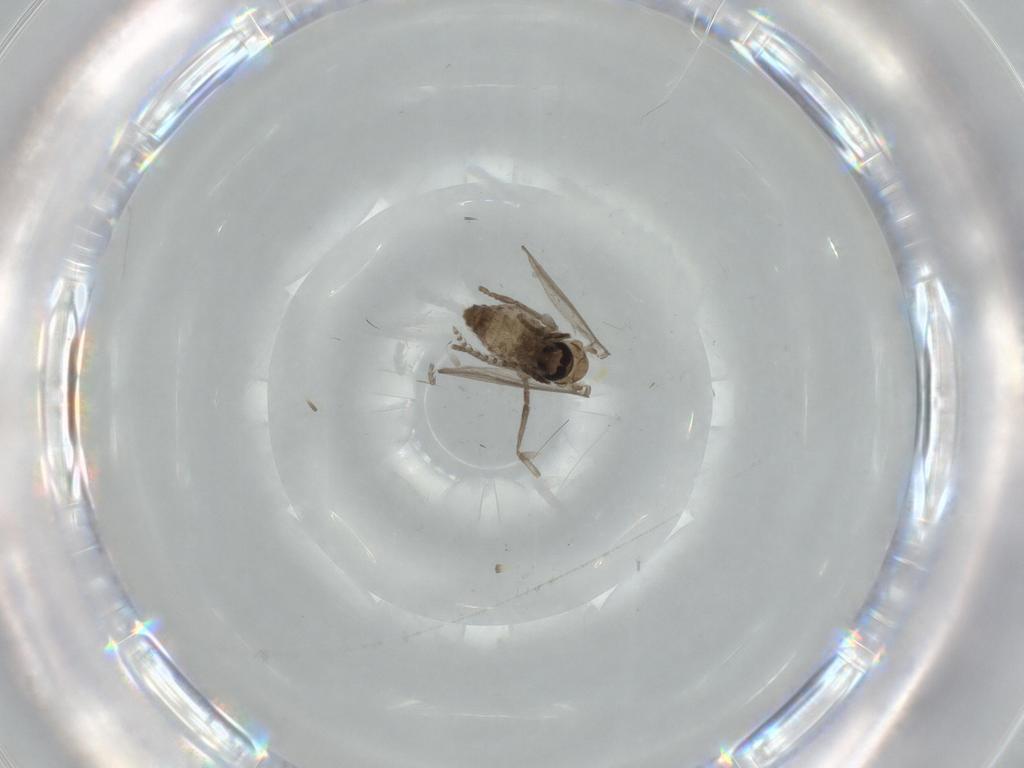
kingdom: Animalia
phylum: Arthropoda
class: Insecta
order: Diptera
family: Psychodidae
